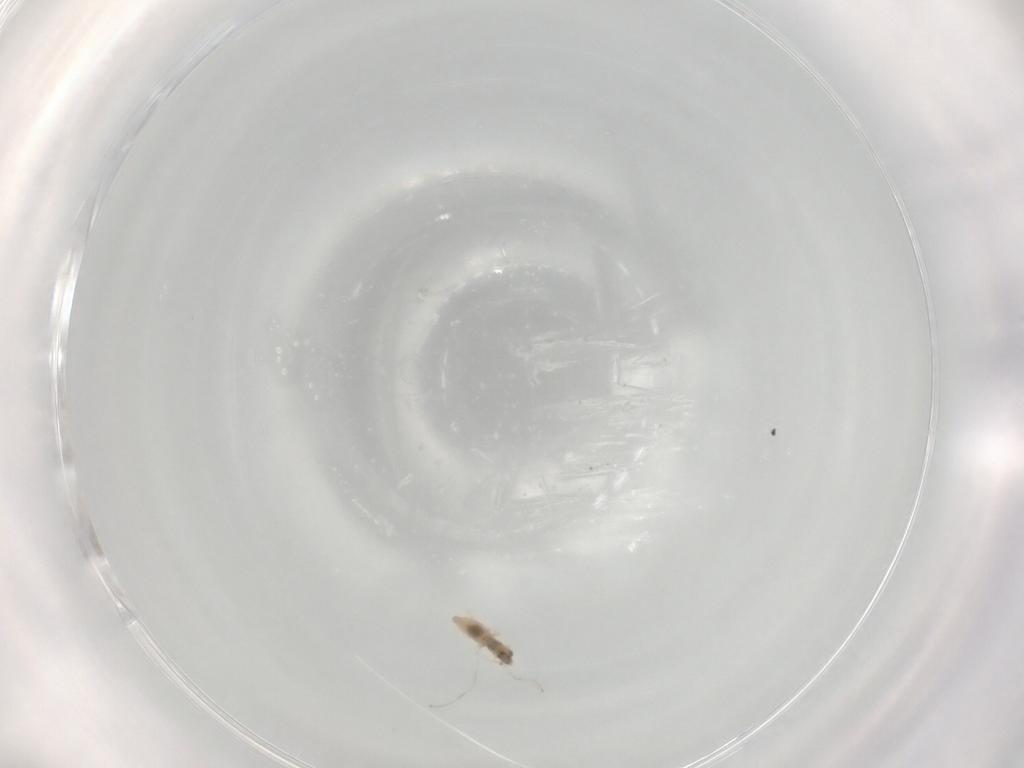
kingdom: Animalia
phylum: Arthropoda
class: Insecta
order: Diptera
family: Cecidomyiidae
